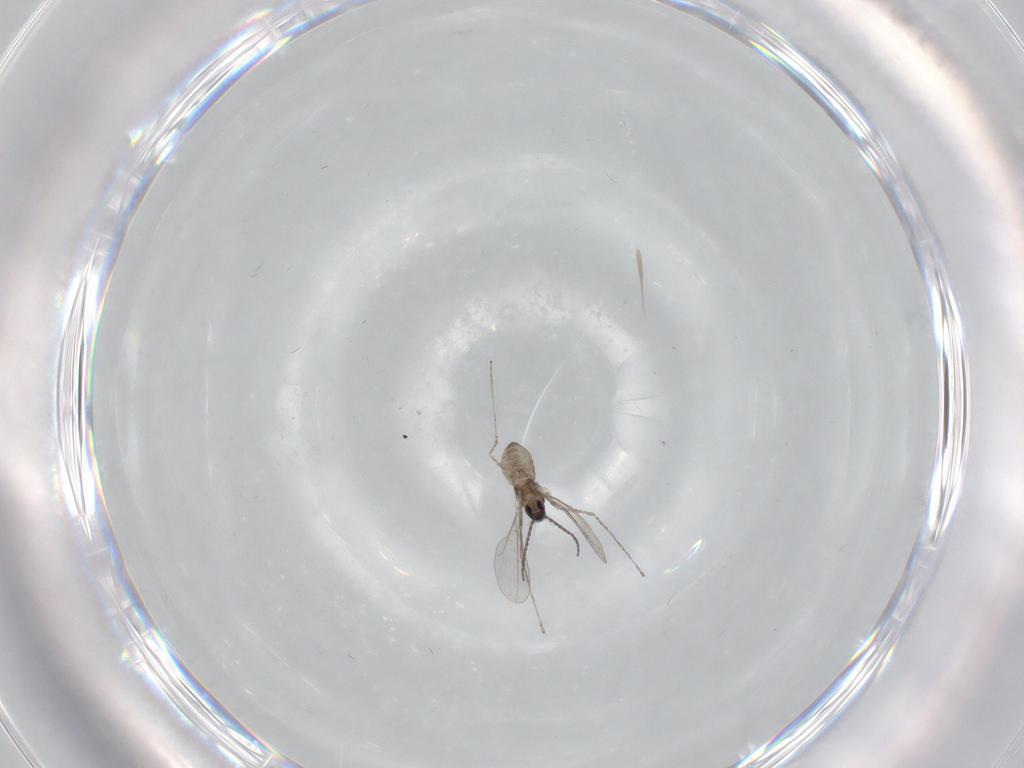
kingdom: Animalia
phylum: Arthropoda
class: Insecta
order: Diptera
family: Cecidomyiidae
